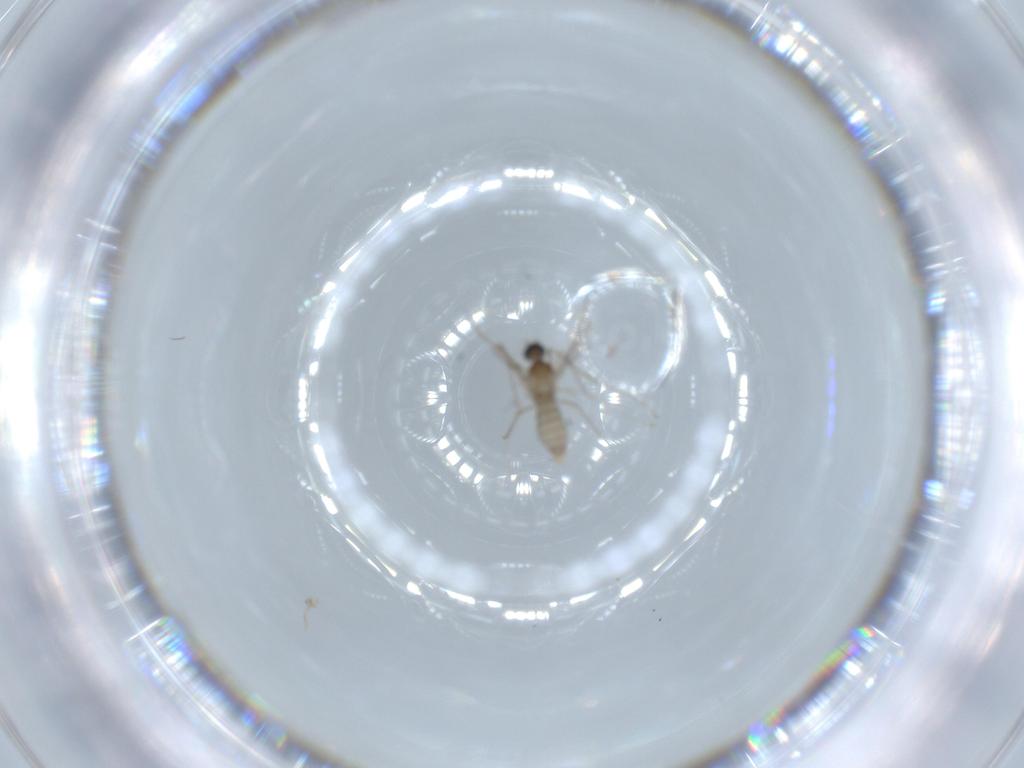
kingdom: Animalia
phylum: Arthropoda
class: Insecta
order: Diptera
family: Cecidomyiidae
